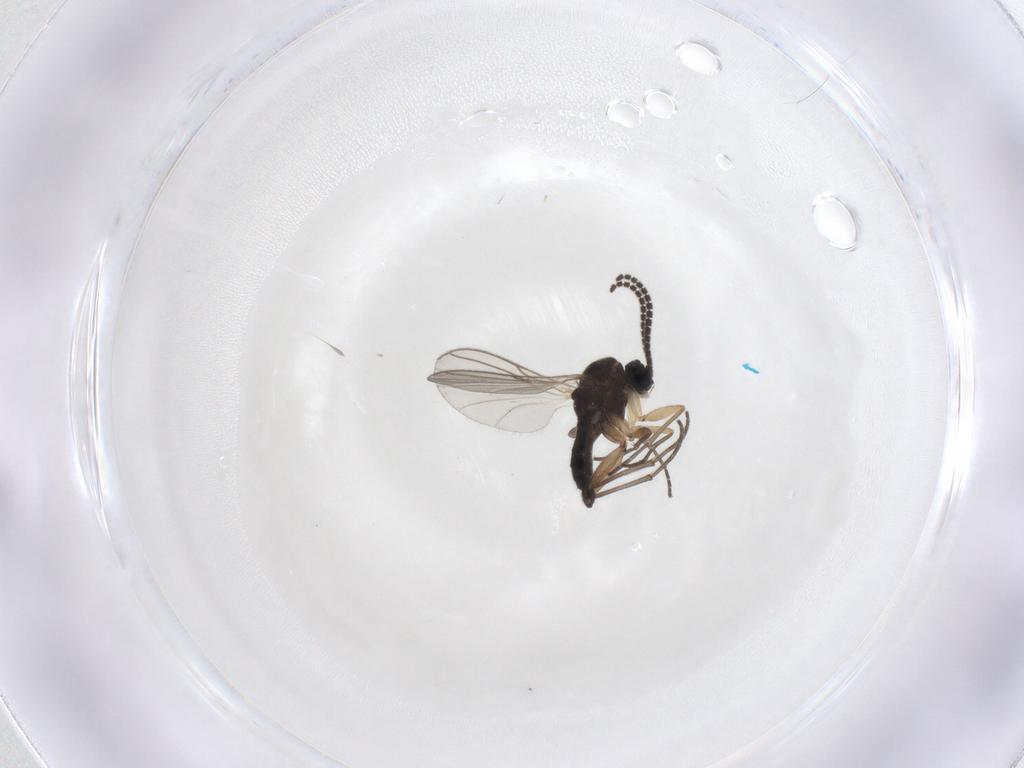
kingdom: Animalia
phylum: Arthropoda
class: Insecta
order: Diptera
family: Sciaridae
